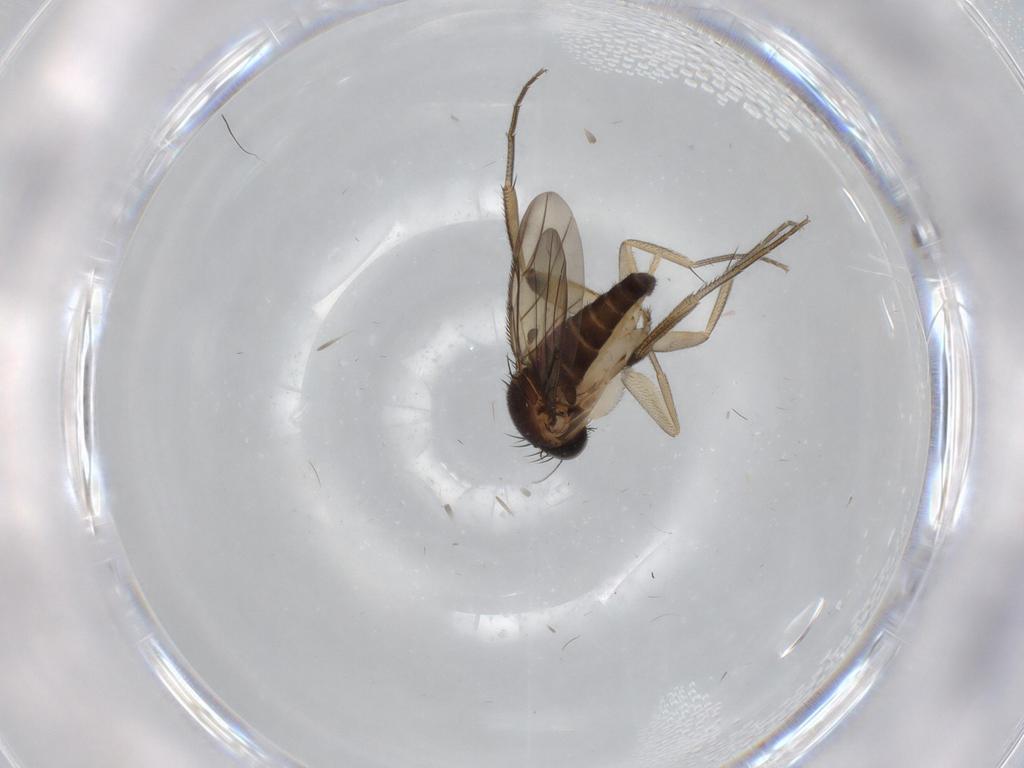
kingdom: Animalia
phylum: Arthropoda
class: Insecta
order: Diptera
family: Phoridae
